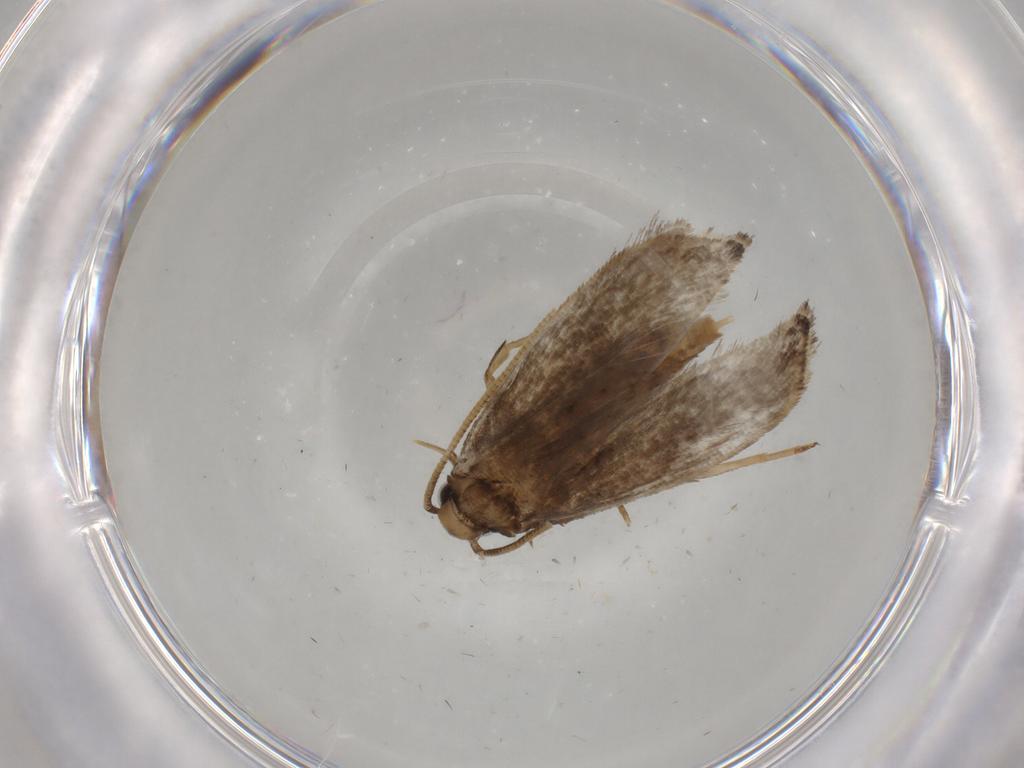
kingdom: Animalia
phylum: Arthropoda
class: Insecta
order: Lepidoptera
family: Tineidae
